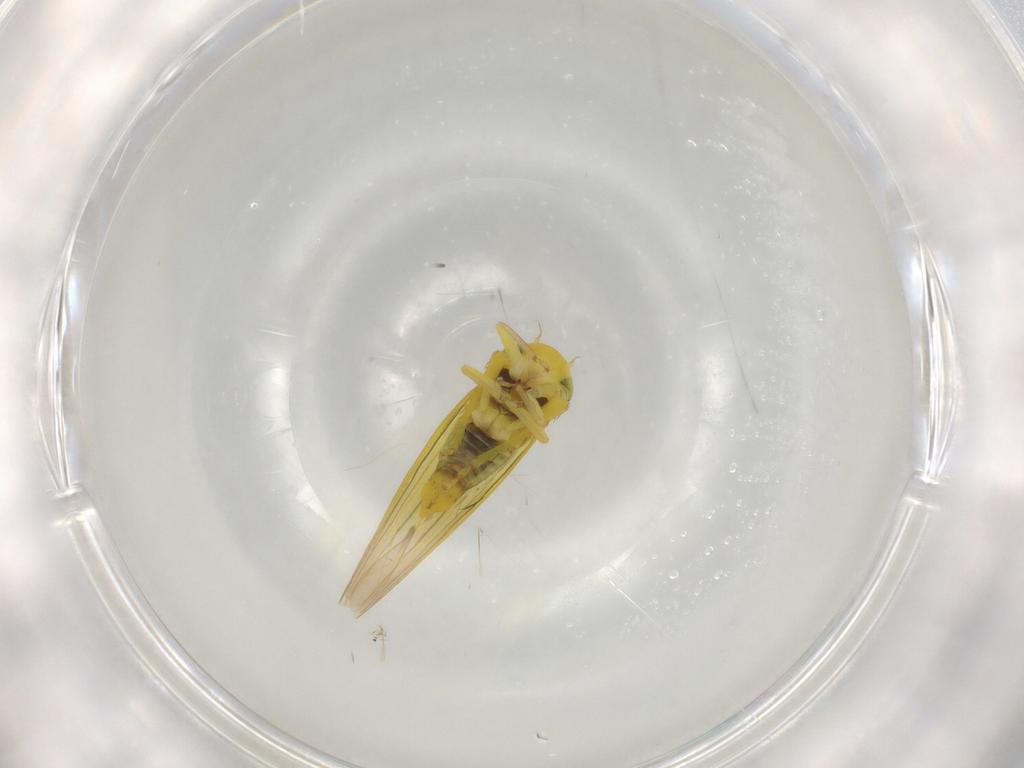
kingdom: Animalia
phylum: Arthropoda
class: Insecta
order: Hemiptera
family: Cicadellidae
